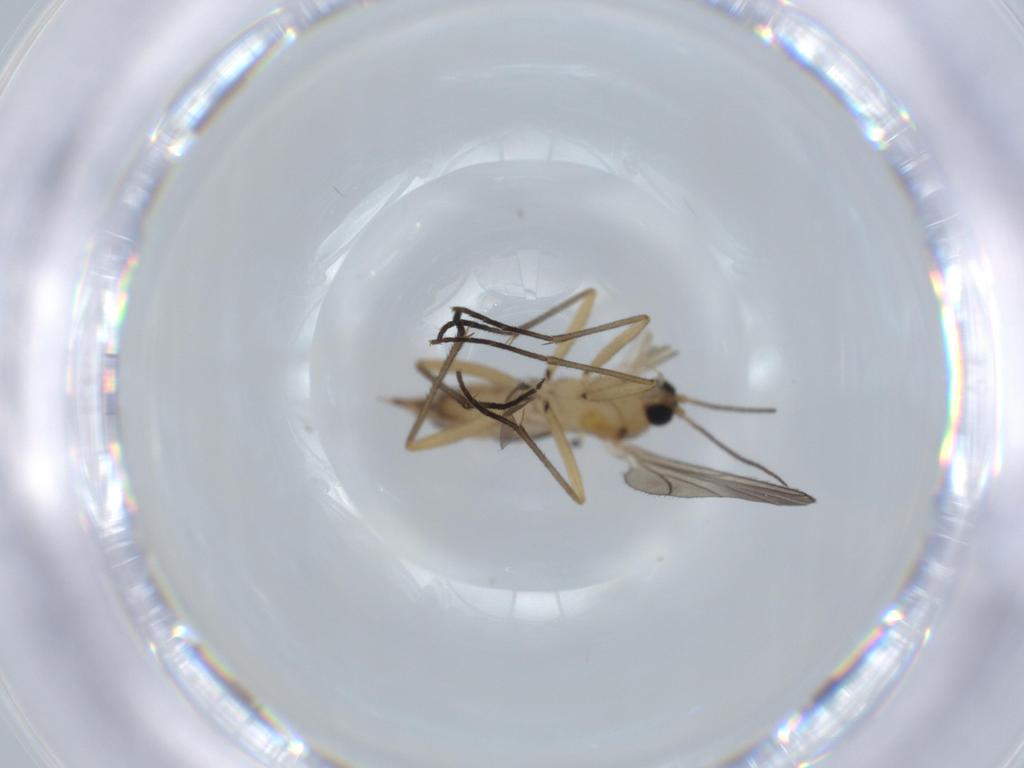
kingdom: Animalia
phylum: Arthropoda
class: Insecta
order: Diptera
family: Sciaridae
